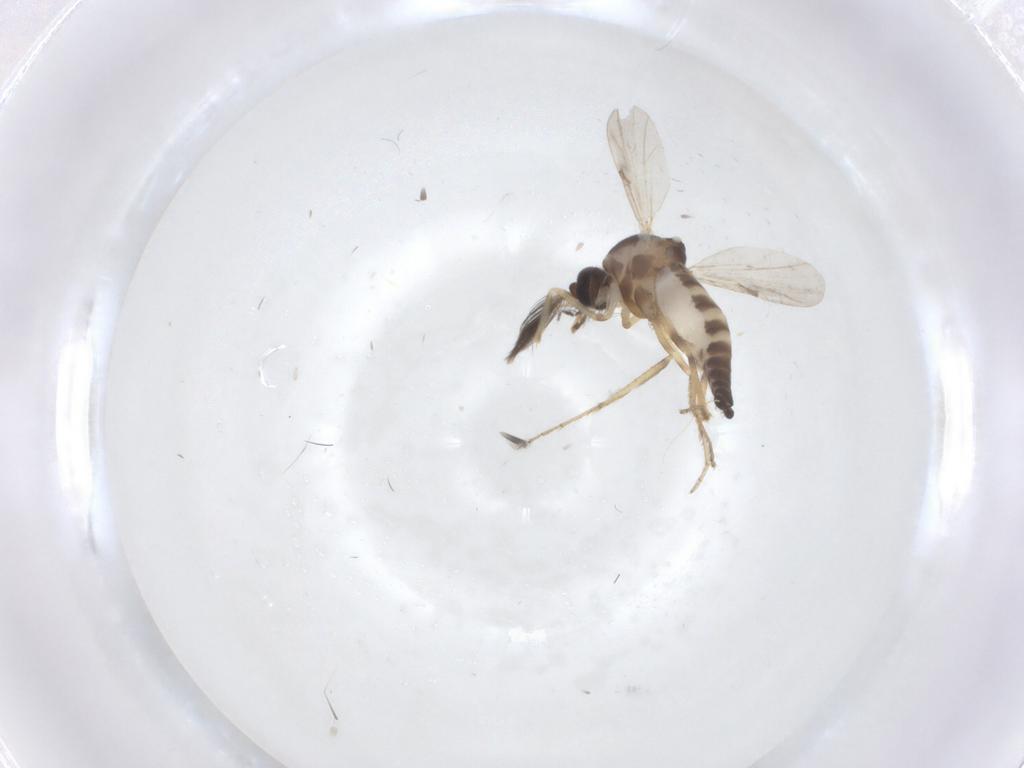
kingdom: Animalia
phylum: Arthropoda
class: Insecta
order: Diptera
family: Ceratopogonidae
